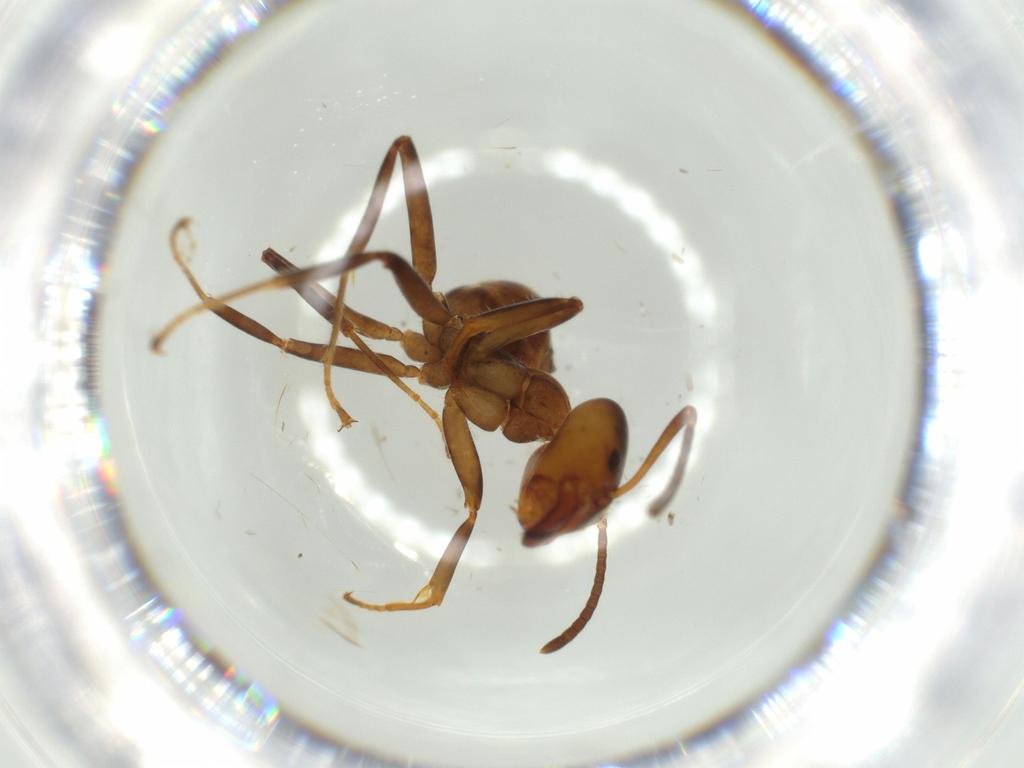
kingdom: Animalia
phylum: Arthropoda
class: Insecta
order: Hymenoptera
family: Formicidae
